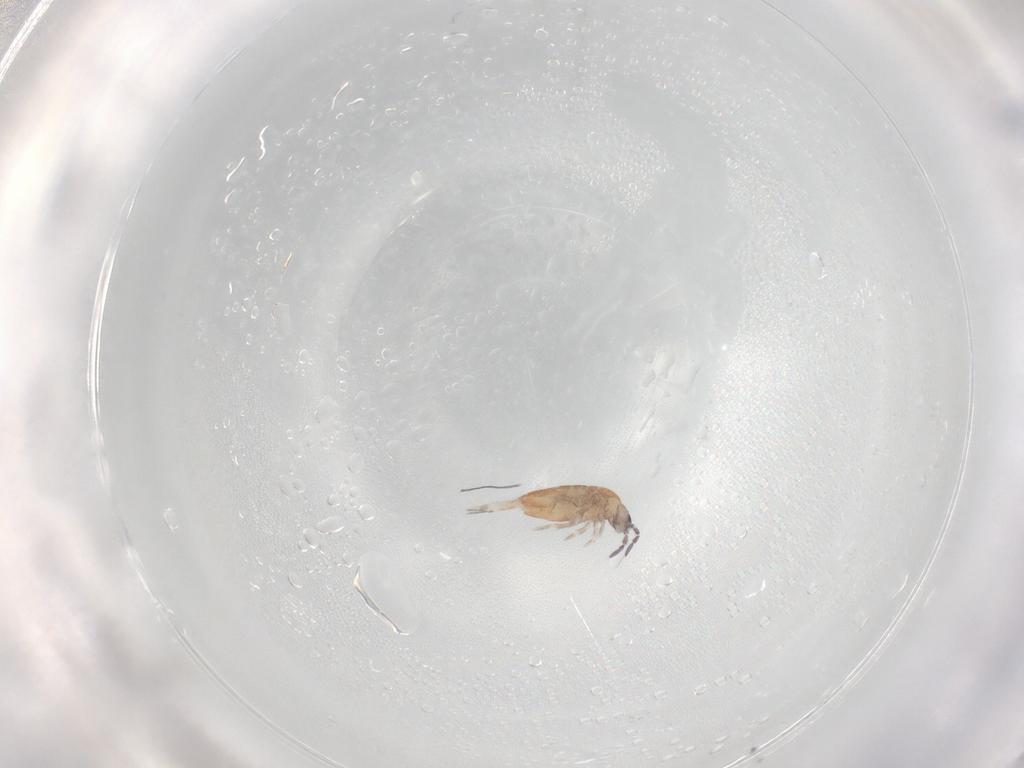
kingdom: Animalia
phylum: Arthropoda
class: Collembola
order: Entomobryomorpha
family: Entomobryidae
